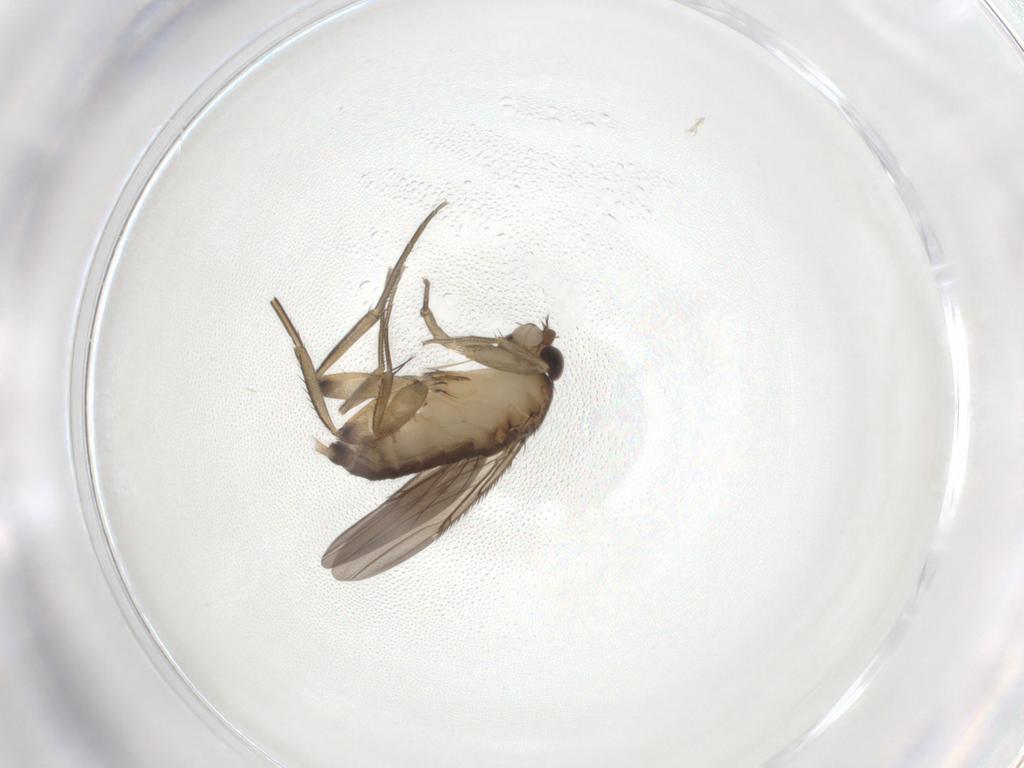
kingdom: Animalia
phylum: Arthropoda
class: Insecta
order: Diptera
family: Phoridae
